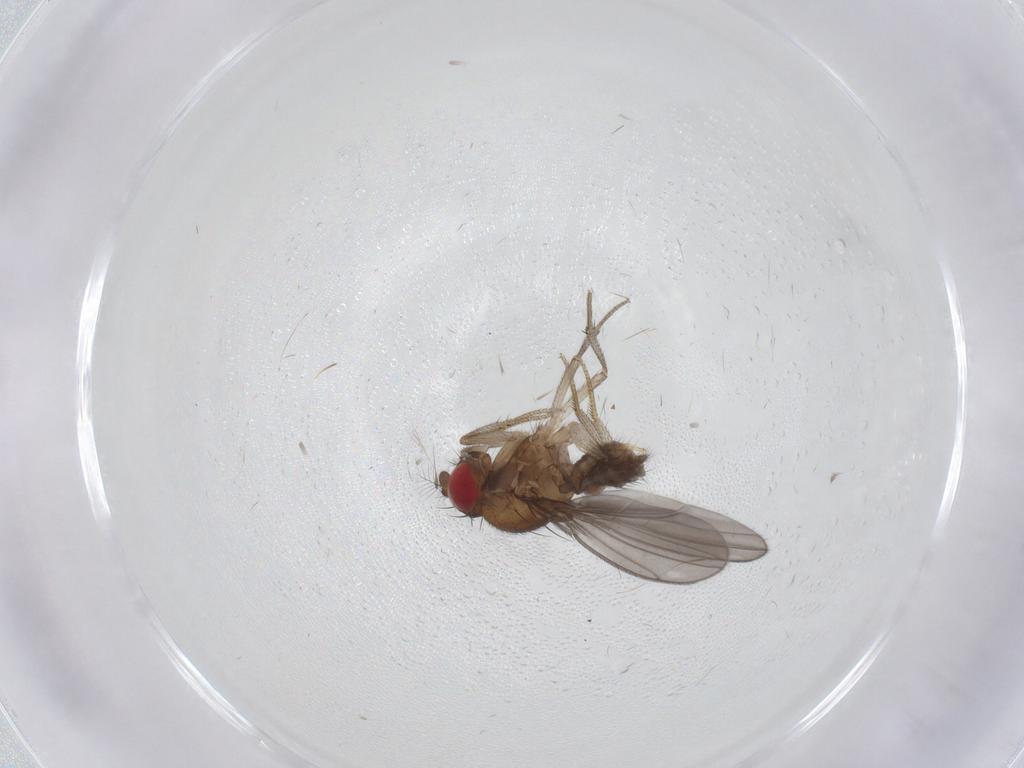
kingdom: Animalia
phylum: Arthropoda
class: Insecta
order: Diptera
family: Drosophilidae
